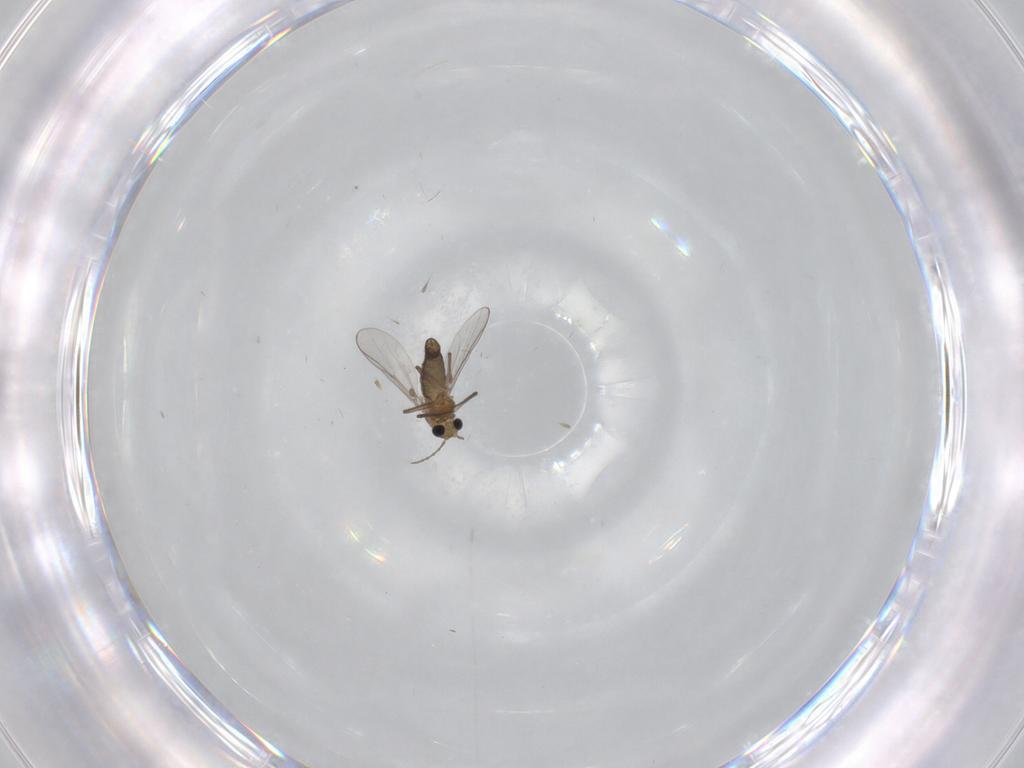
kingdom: Animalia
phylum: Arthropoda
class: Insecta
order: Diptera
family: Chironomidae
